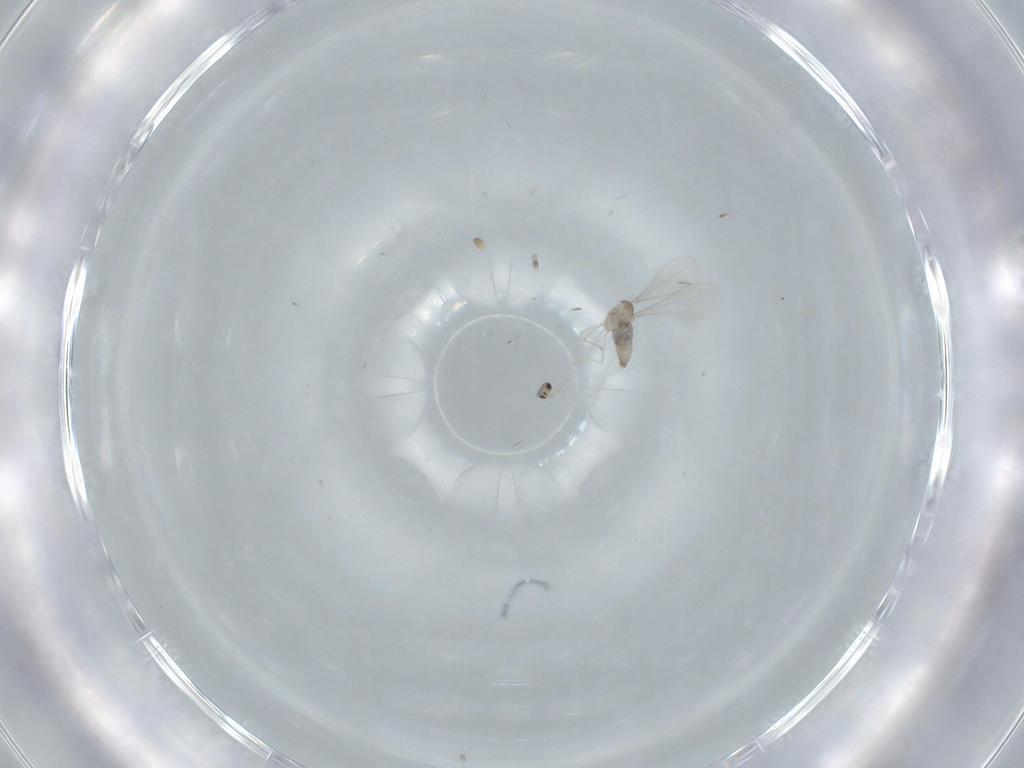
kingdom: Animalia
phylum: Arthropoda
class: Insecta
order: Diptera
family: Cecidomyiidae
